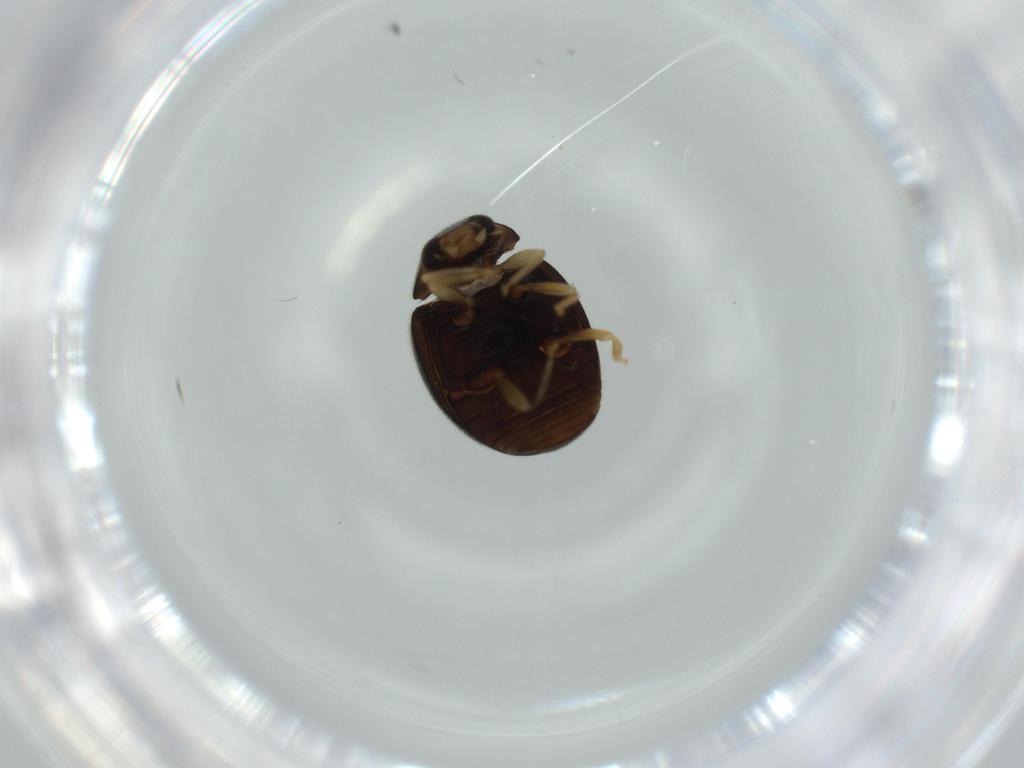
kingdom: Animalia
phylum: Arthropoda
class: Insecta
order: Coleoptera
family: Coccinellidae
